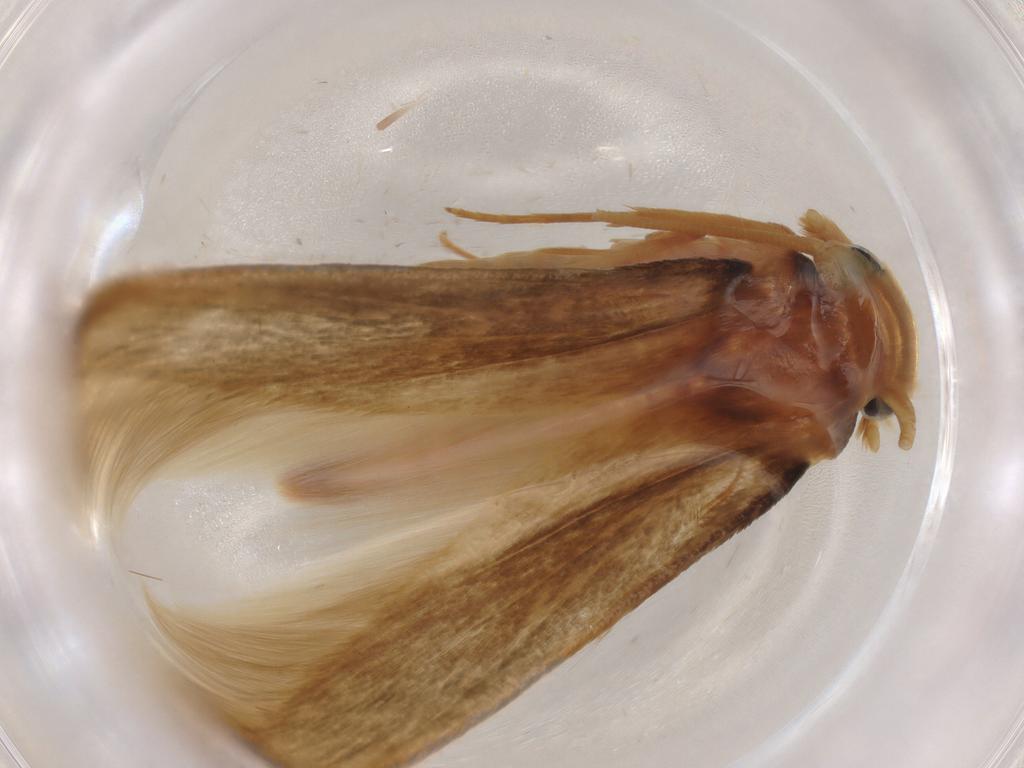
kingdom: Animalia
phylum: Arthropoda
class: Insecta
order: Lepidoptera
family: Tineidae
